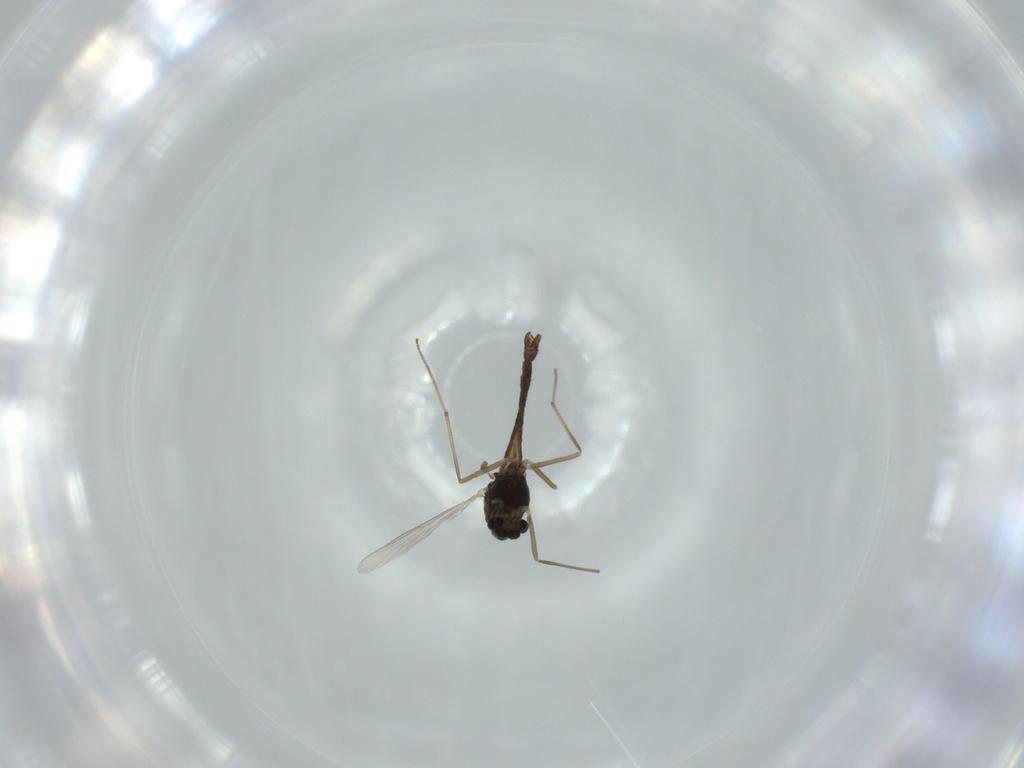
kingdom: Animalia
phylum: Arthropoda
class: Insecta
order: Diptera
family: Chironomidae
